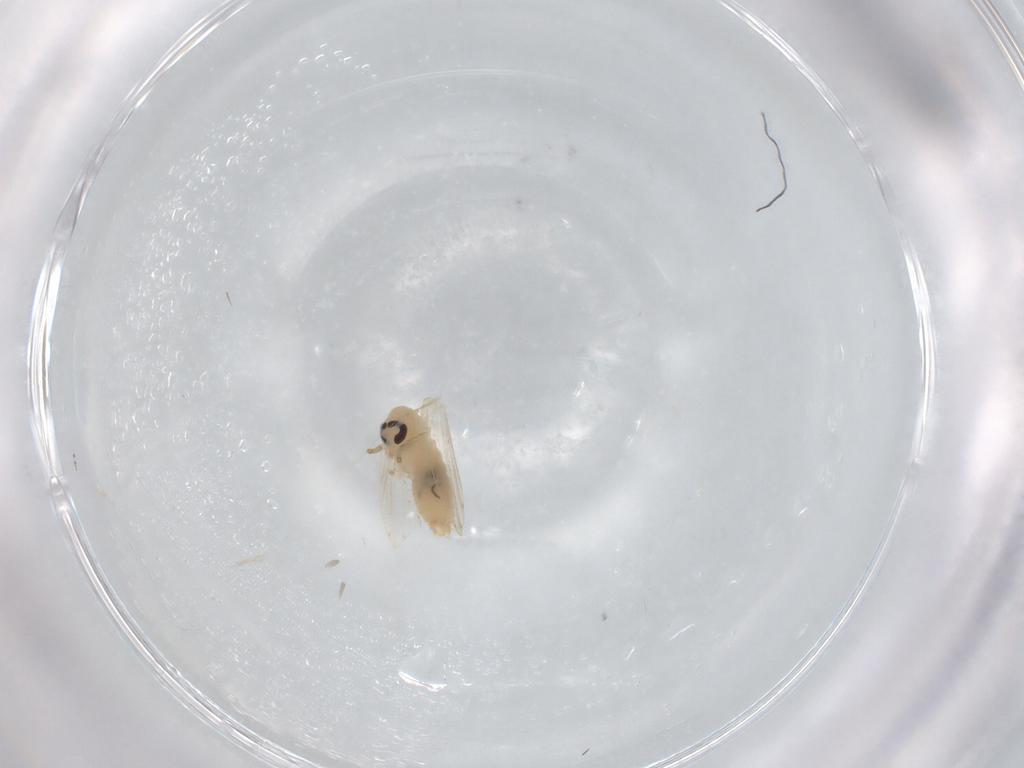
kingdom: Animalia
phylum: Arthropoda
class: Insecta
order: Diptera
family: Psychodidae
